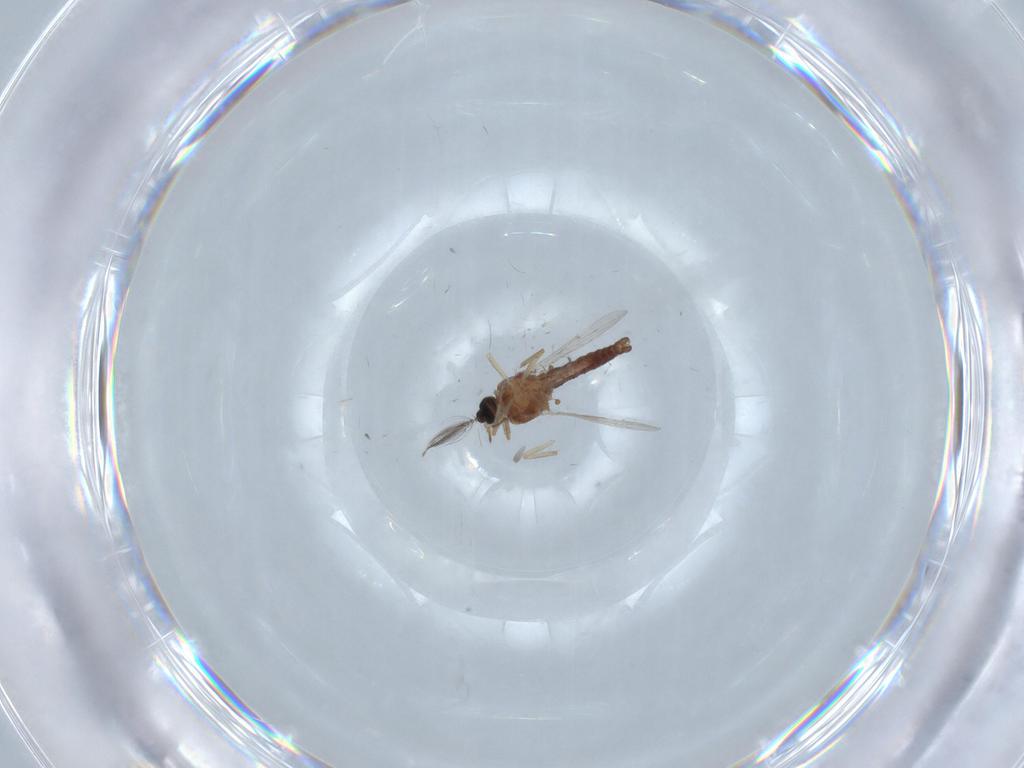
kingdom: Animalia
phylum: Arthropoda
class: Insecta
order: Diptera
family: Ceratopogonidae
